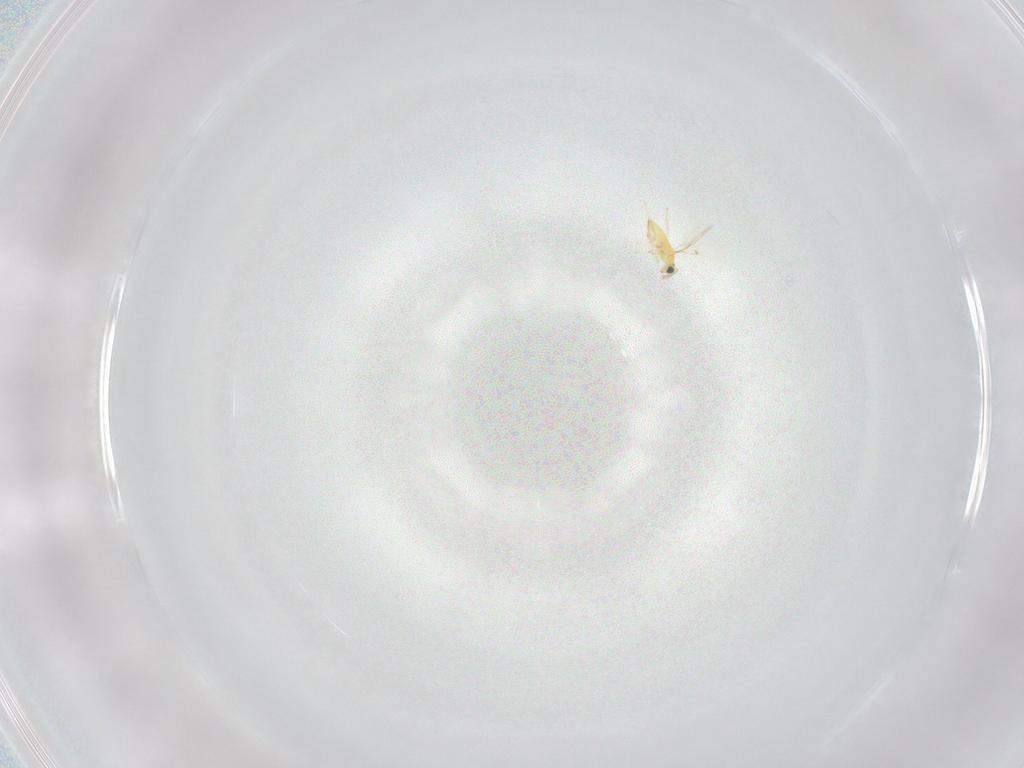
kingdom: Animalia
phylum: Arthropoda
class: Insecta
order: Hymenoptera
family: Trichogrammatidae
